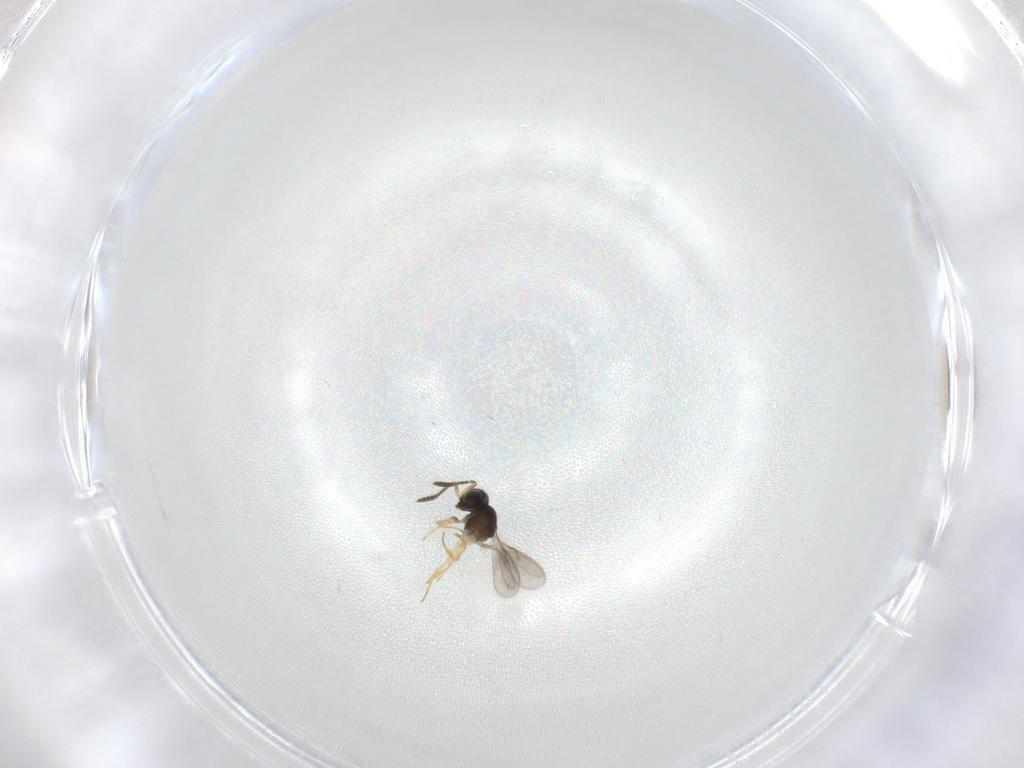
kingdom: Animalia
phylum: Arthropoda
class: Insecta
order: Hymenoptera
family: Scelionidae
